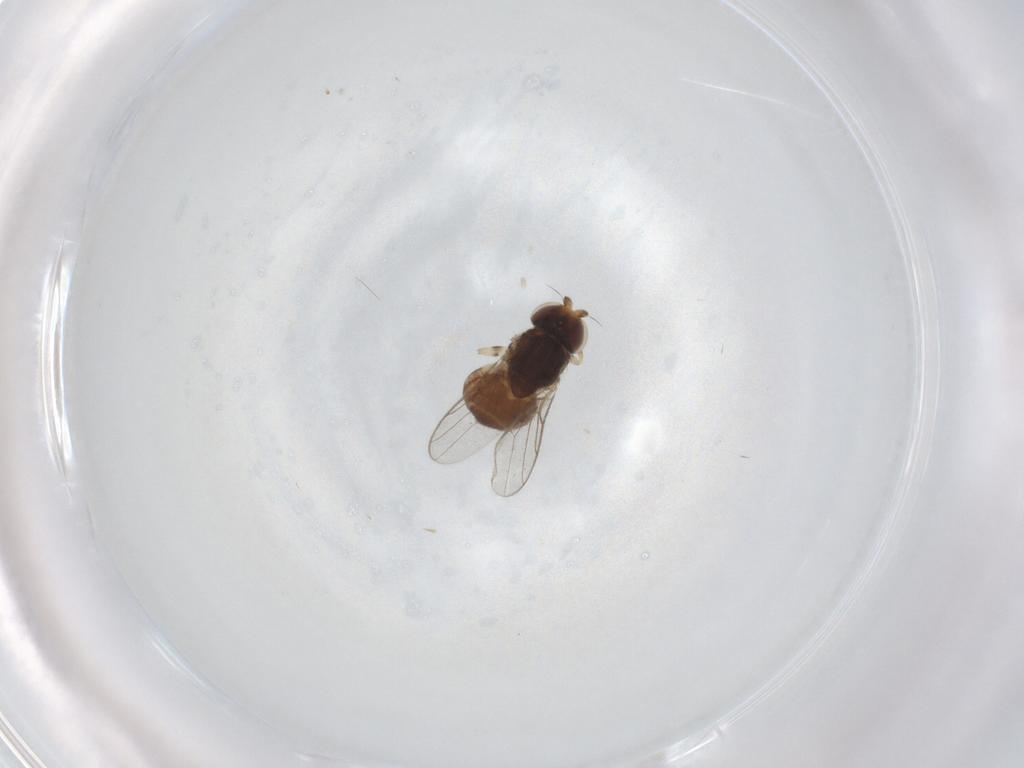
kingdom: Animalia
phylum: Arthropoda
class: Insecta
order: Diptera
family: Chloropidae
